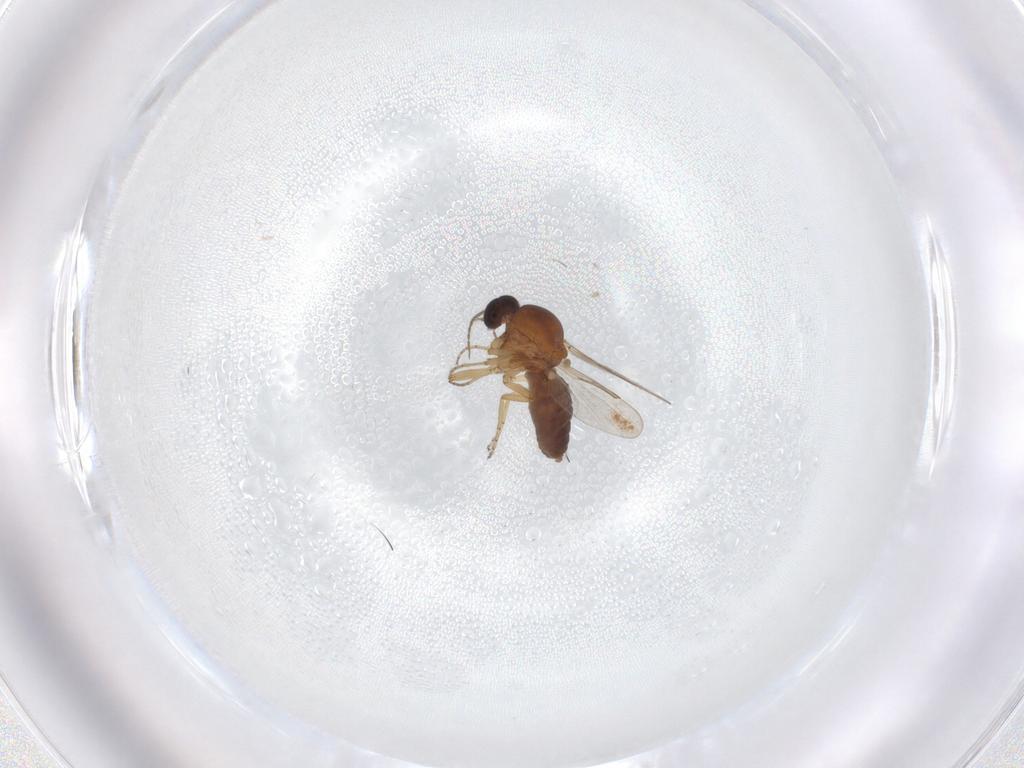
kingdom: Animalia
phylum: Arthropoda
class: Insecta
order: Diptera
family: Ceratopogonidae
